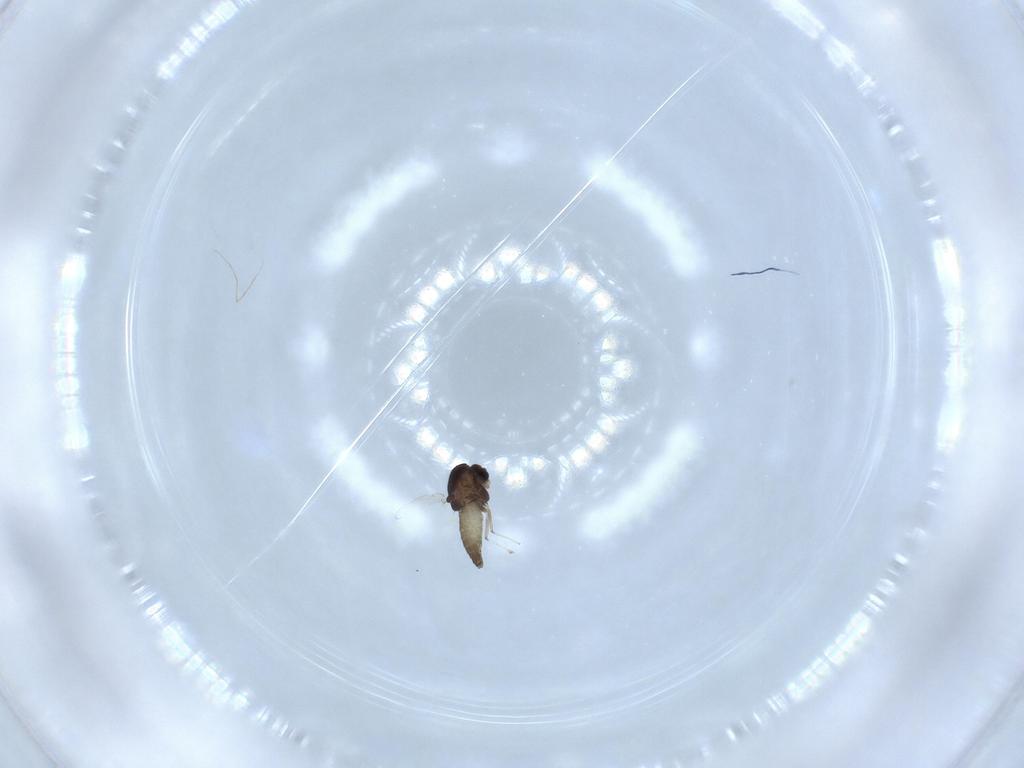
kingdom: Animalia
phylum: Arthropoda
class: Insecta
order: Diptera
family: Chironomidae
